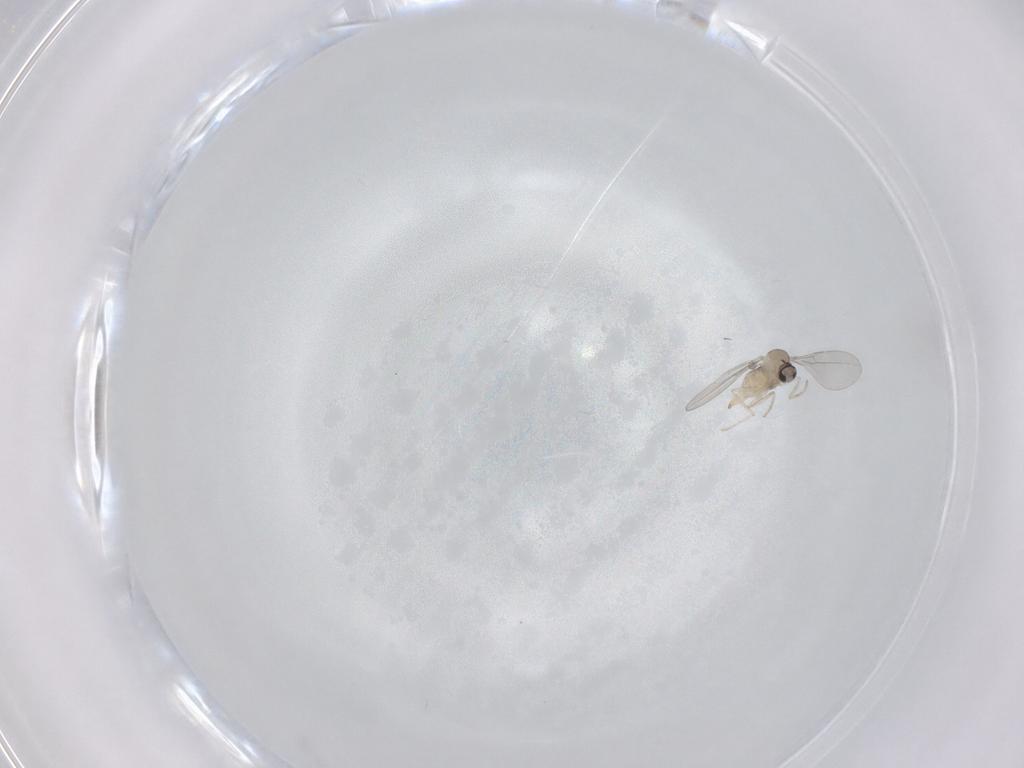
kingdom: Animalia
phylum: Arthropoda
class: Insecta
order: Diptera
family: Cecidomyiidae
